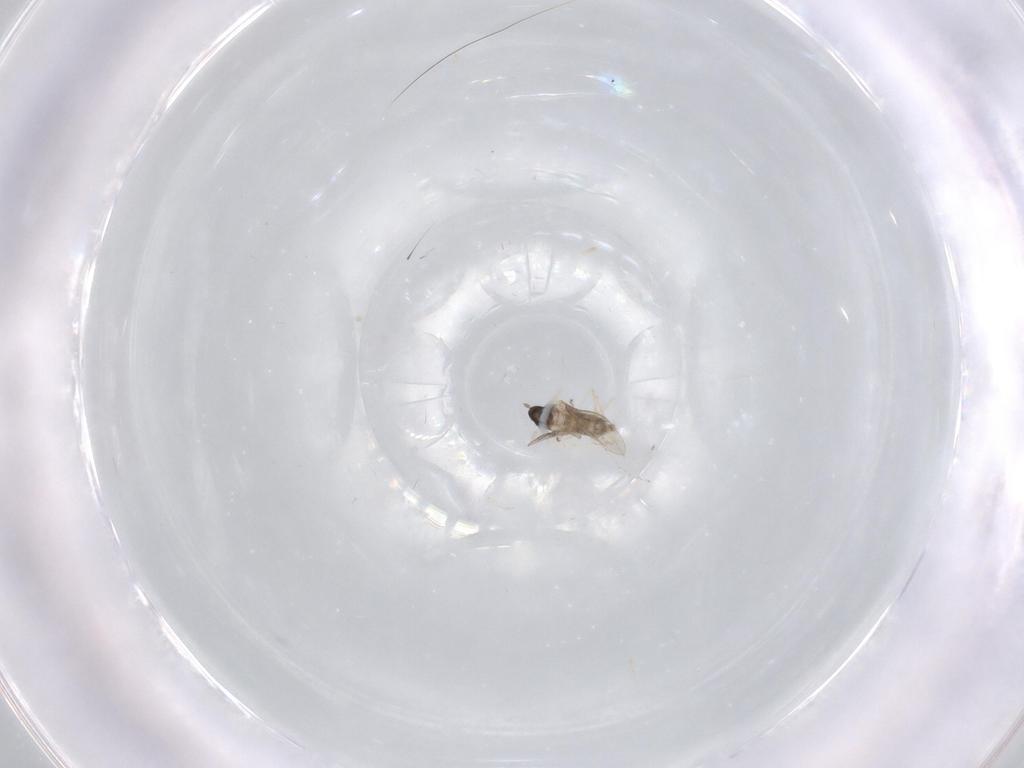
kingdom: Animalia
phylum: Arthropoda
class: Insecta
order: Diptera
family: Cecidomyiidae
